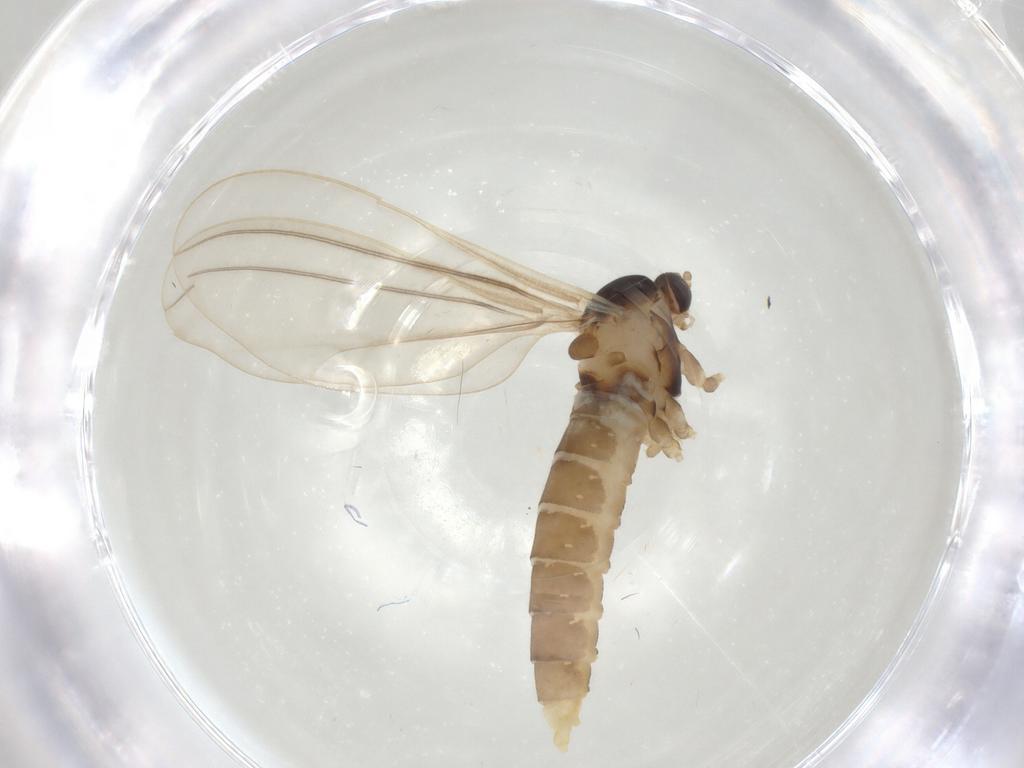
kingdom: Animalia
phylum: Arthropoda
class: Insecta
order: Diptera
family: Cecidomyiidae
